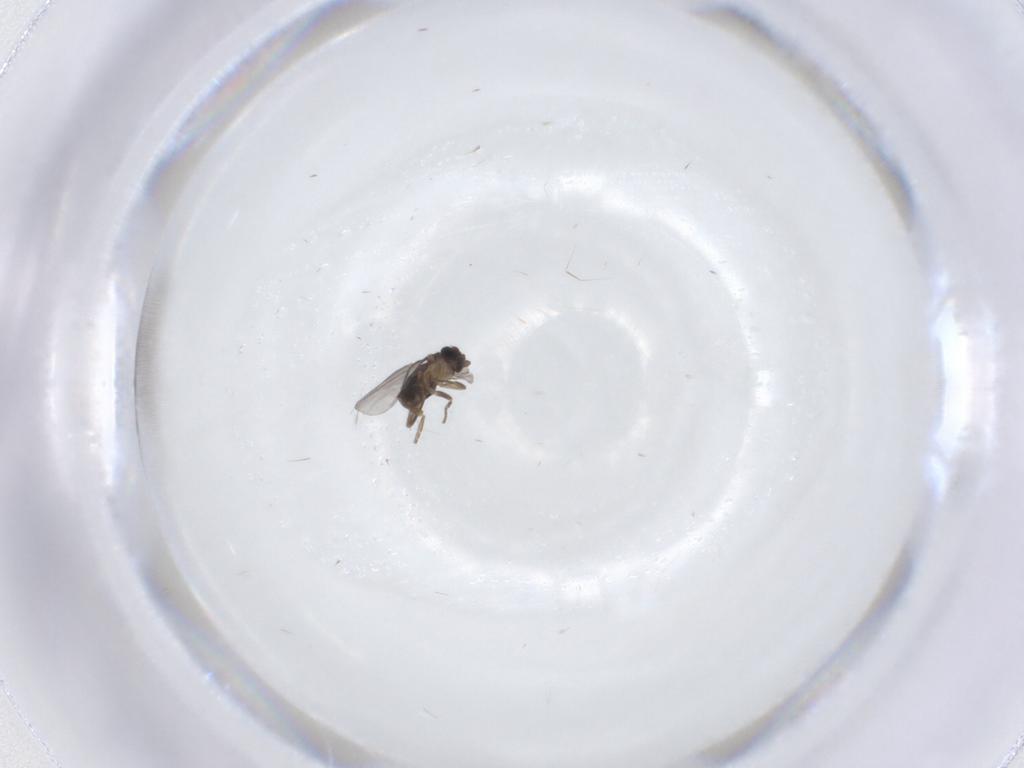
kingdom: Animalia
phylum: Arthropoda
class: Insecta
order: Diptera
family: Phoridae
